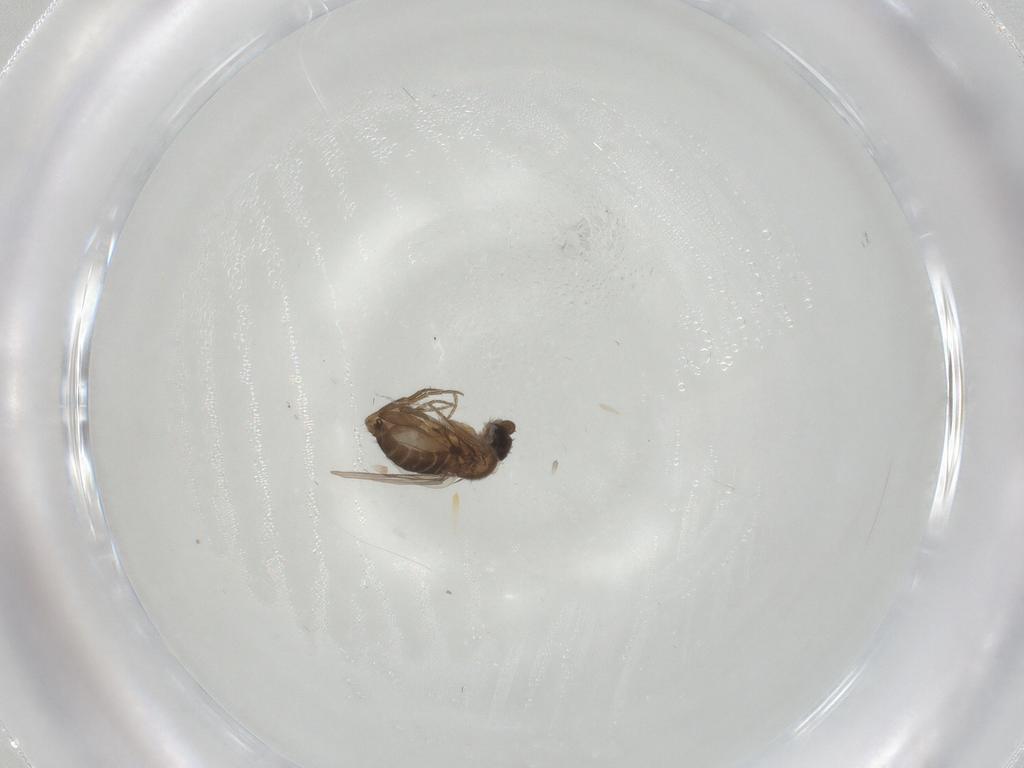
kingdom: Animalia
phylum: Arthropoda
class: Insecta
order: Diptera
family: Phoridae
